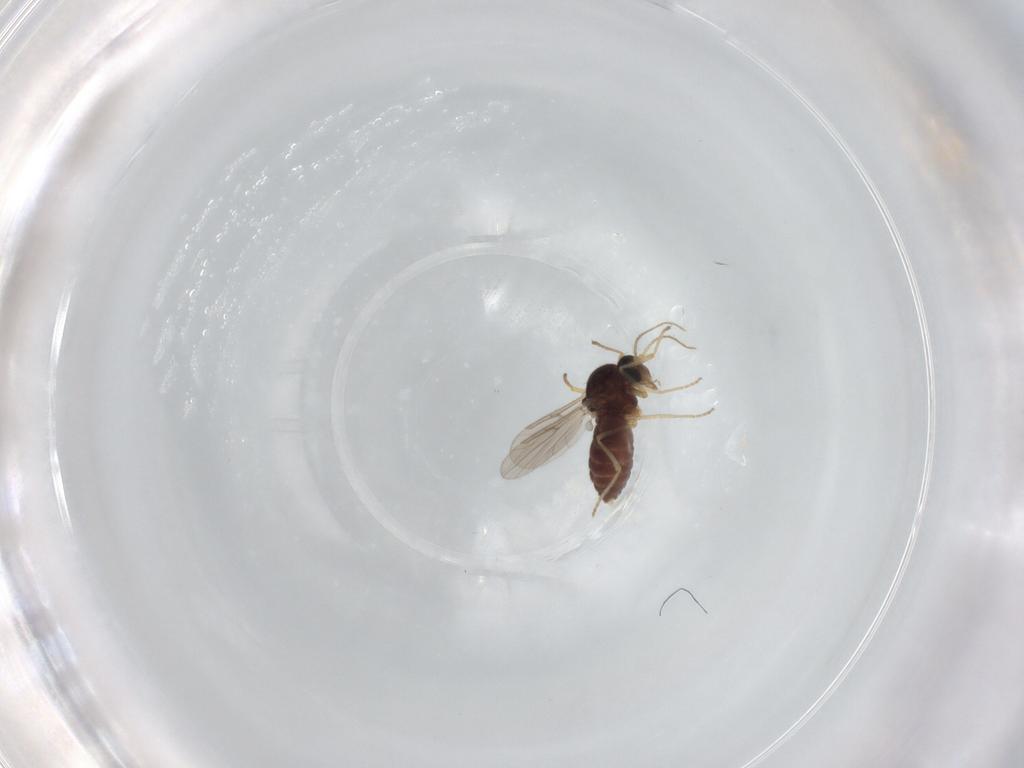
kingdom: Animalia
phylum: Arthropoda
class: Insecta
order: Diptera
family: Ceratopogonidae
